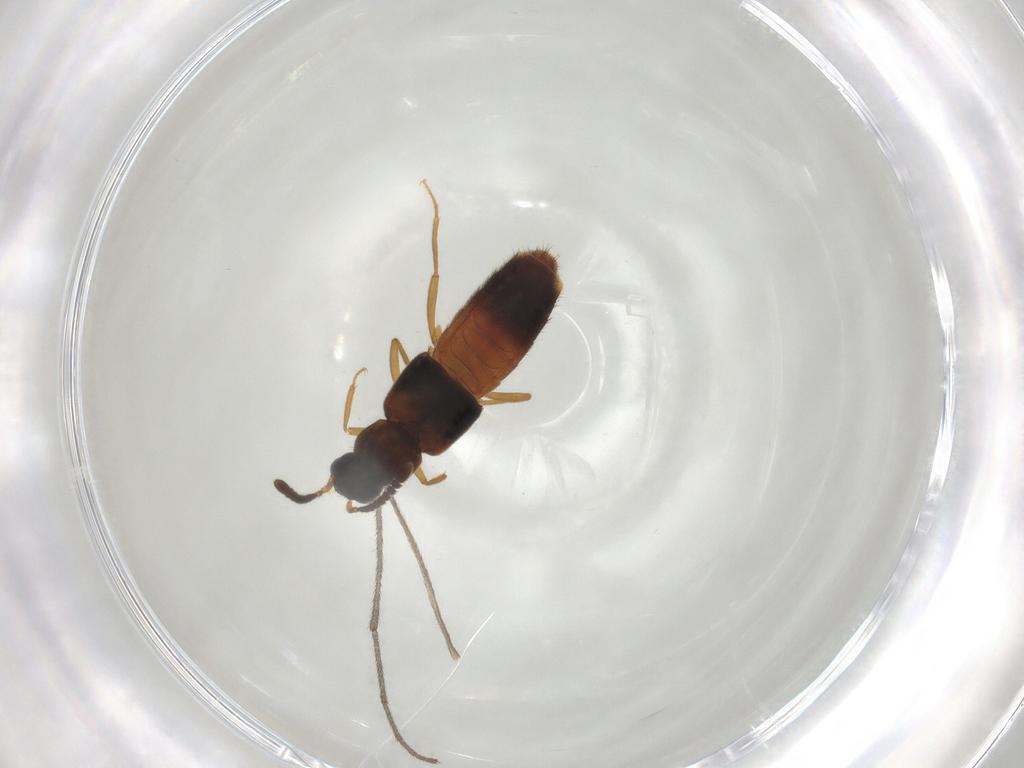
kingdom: Animalia
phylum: Arthropoda
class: Insecta
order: Coleoptera
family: Staphylinidae
